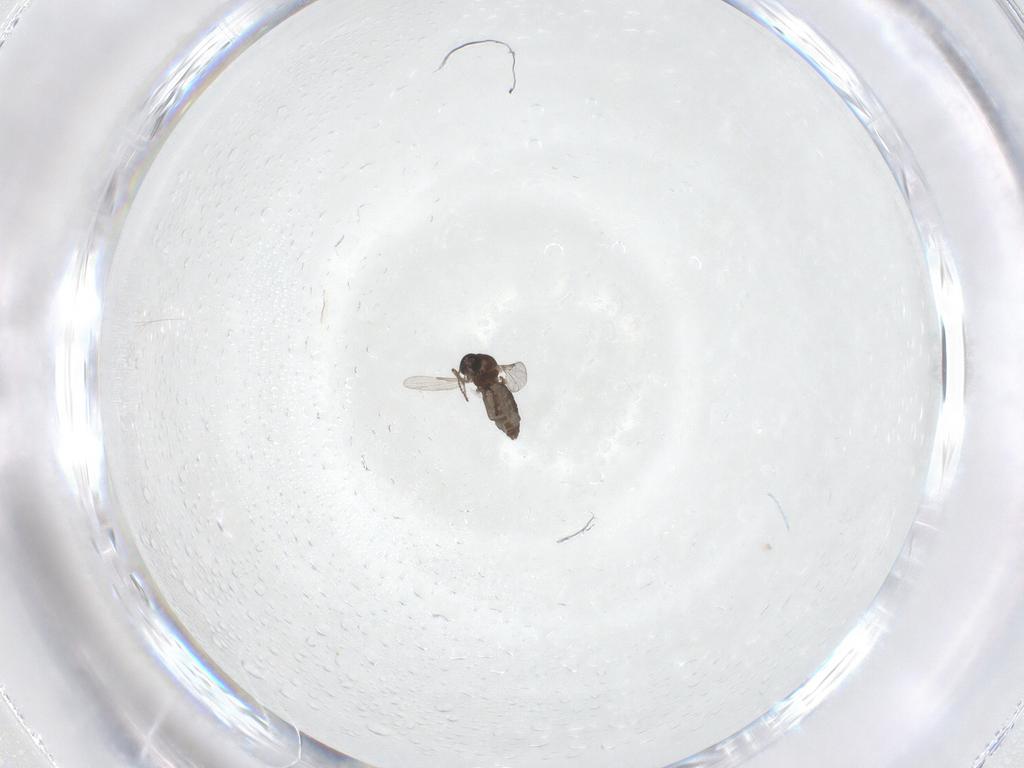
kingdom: Animalia
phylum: Arthropoda
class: Insecta
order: Diptera
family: Ceratopogonidae
